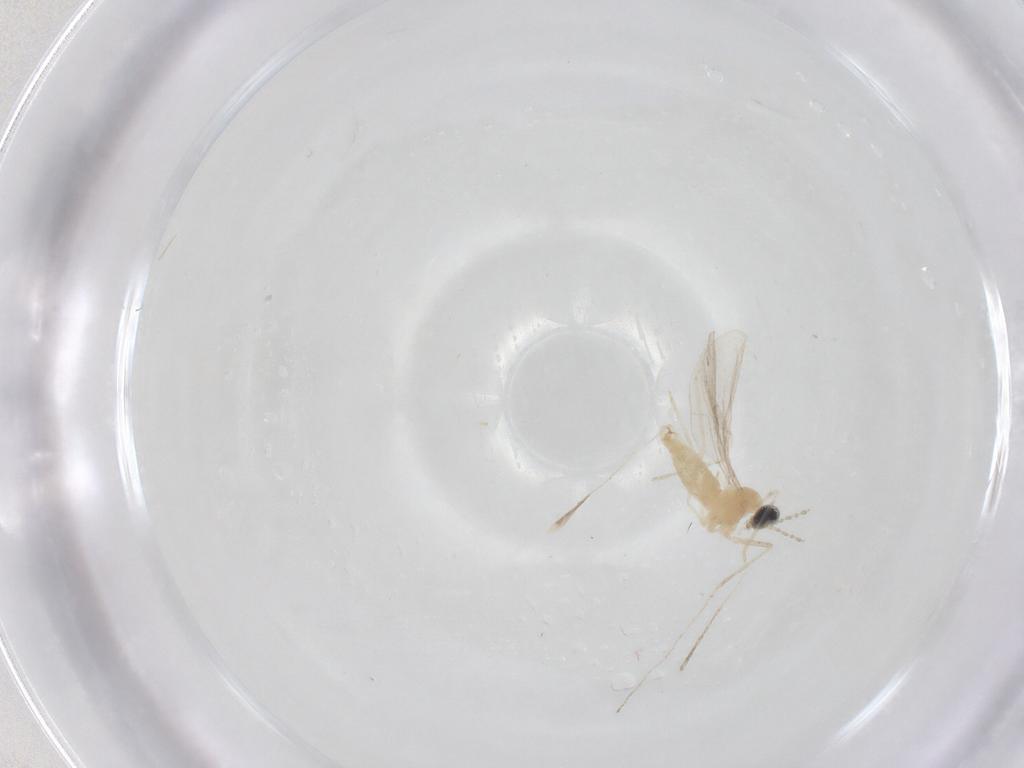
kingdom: Animalia
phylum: Arthropoda
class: Insecta
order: Diptera
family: Cecidomyiidae
